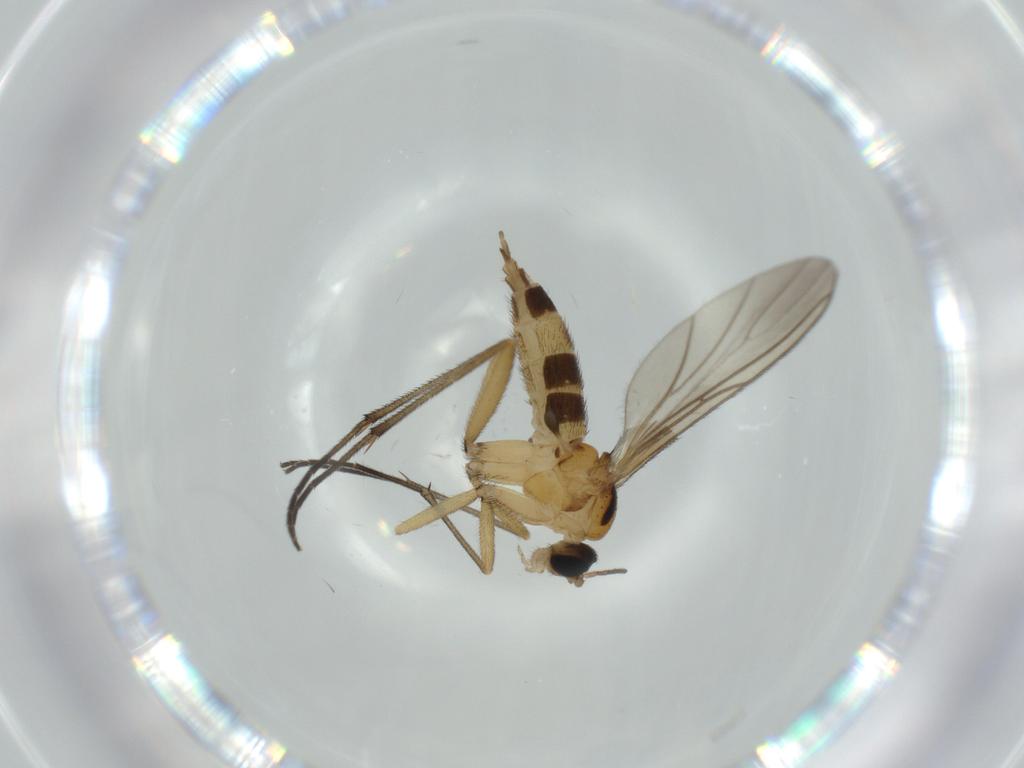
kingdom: Animalia
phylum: Arthropoda
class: Insecta
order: Diptera
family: Sciaridae
